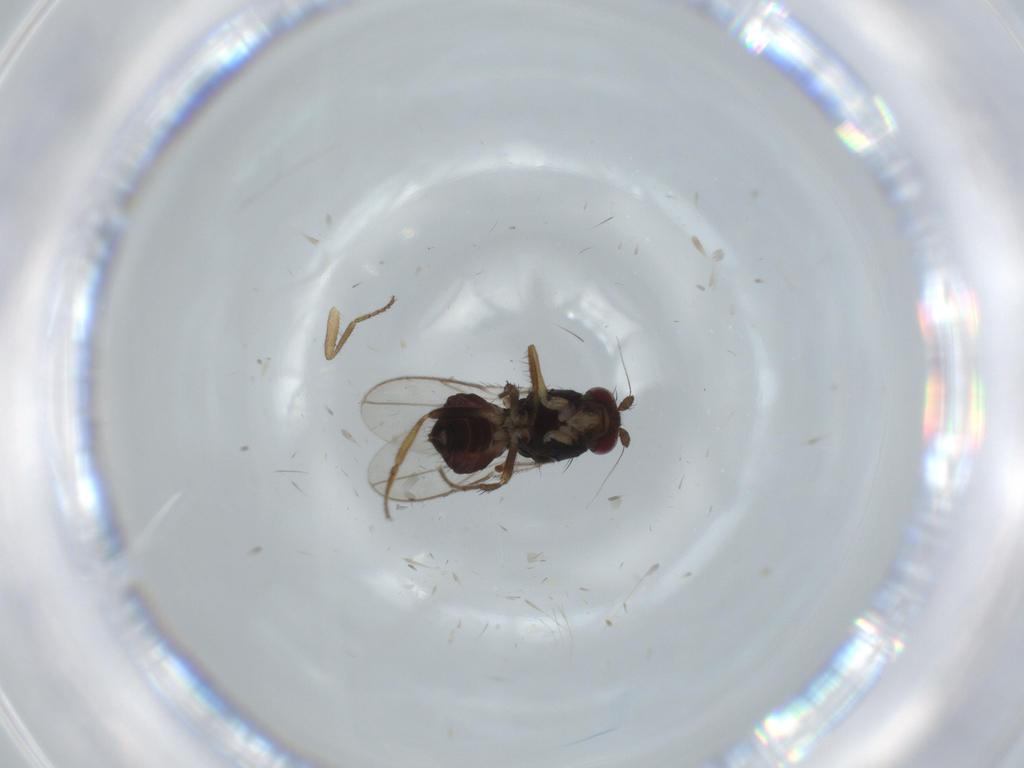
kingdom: Animalia
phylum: Arthropoda
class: Insecta
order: Diptera
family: Sphaeroceridae
